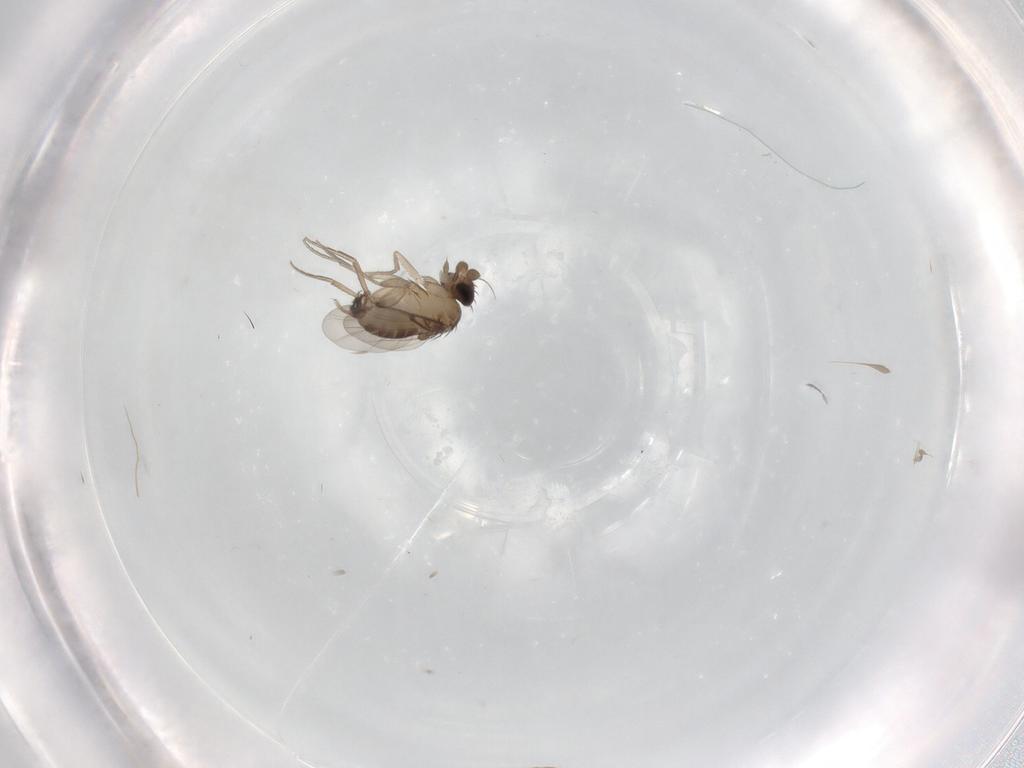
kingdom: Animalia
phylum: Arthropoda
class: Insecta
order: Diptera
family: Phoridae
